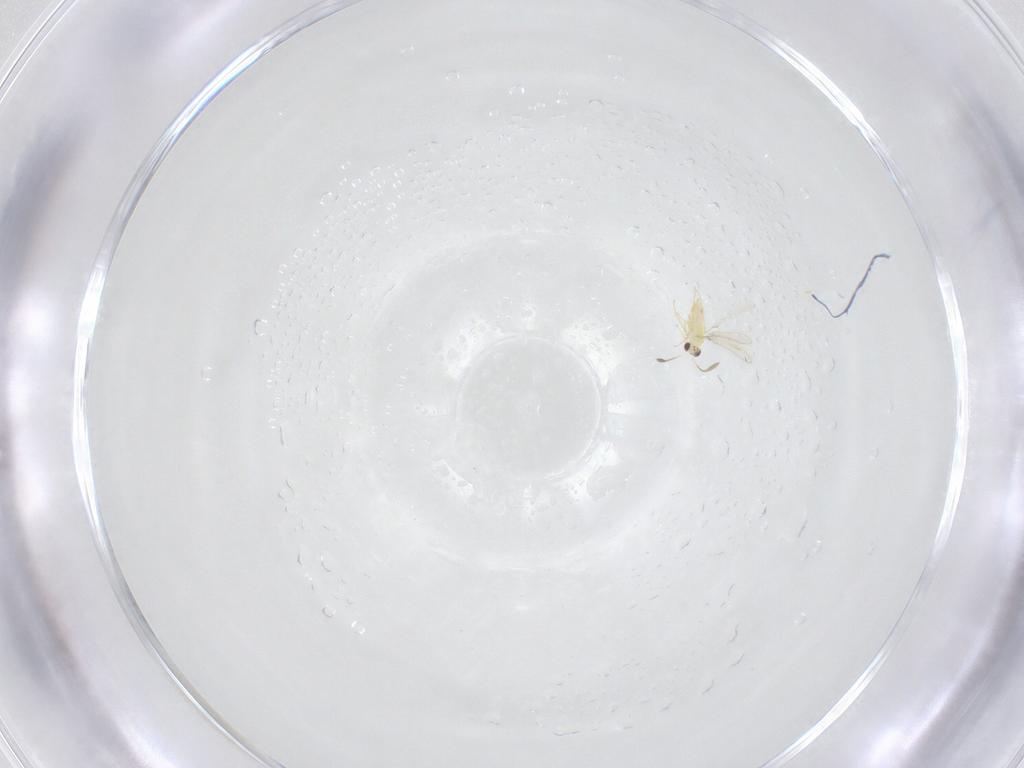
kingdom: Animalia
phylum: Arthropoda
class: Insecta
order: Hymenoptera
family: Mymaridae
